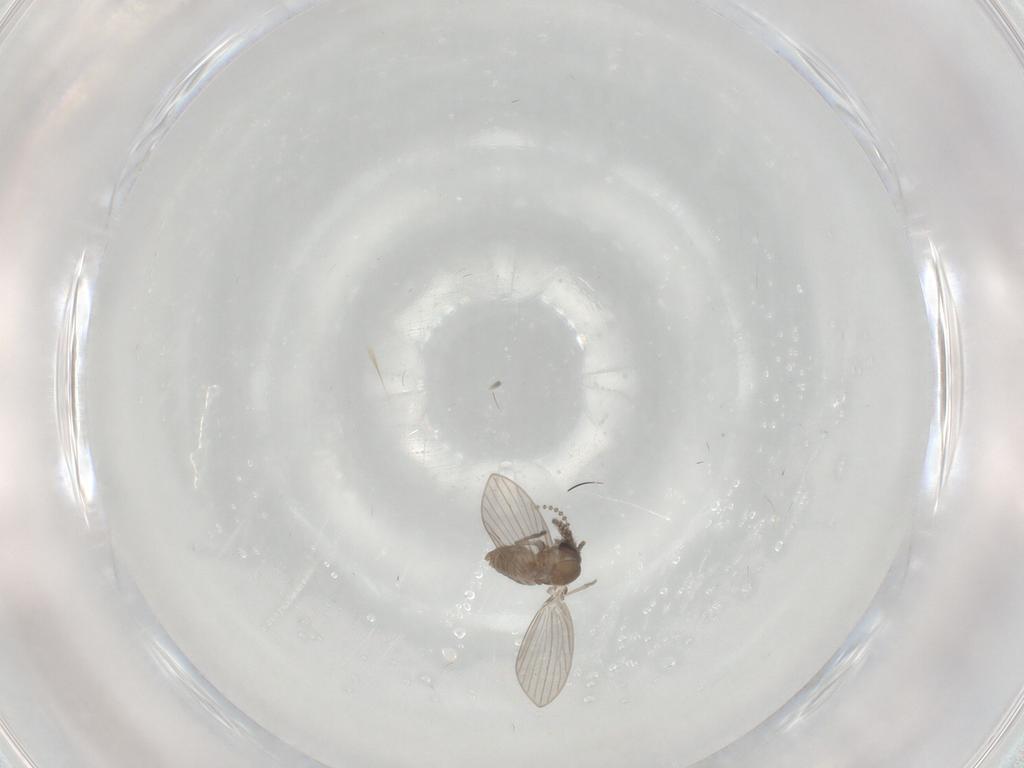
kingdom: Animalia
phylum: Arthropoda
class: Insecta
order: Diptera
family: Psychodidae
